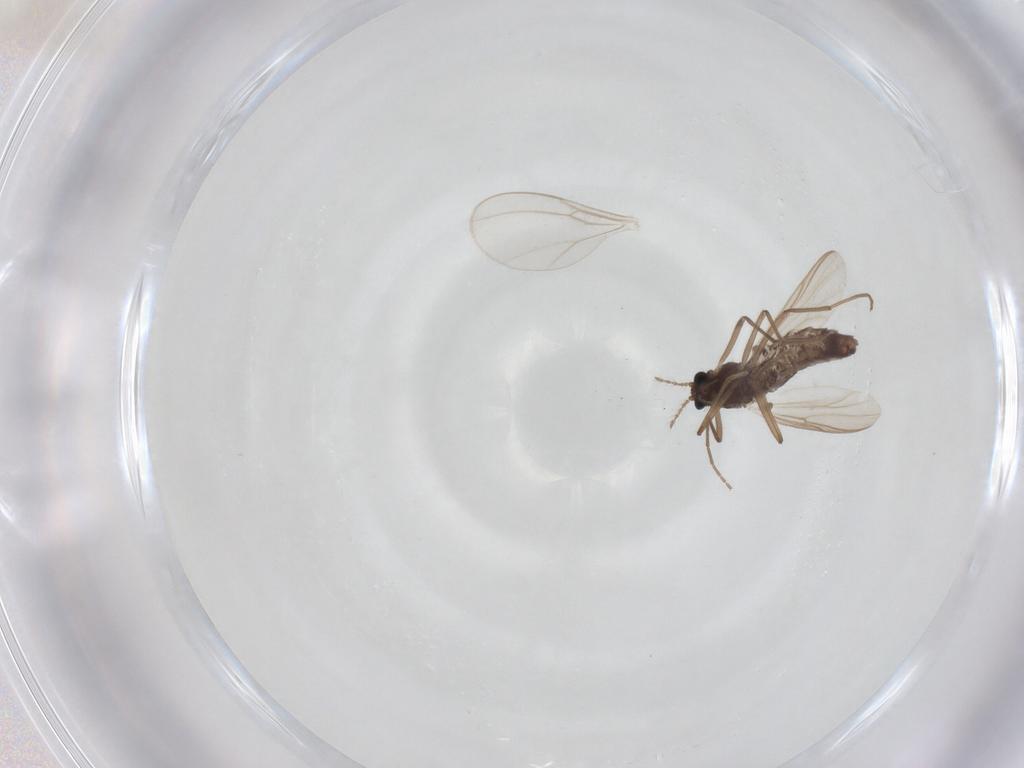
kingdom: Animalia
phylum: Arthropoda
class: Insecta
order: Diptera
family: Chironomidae
